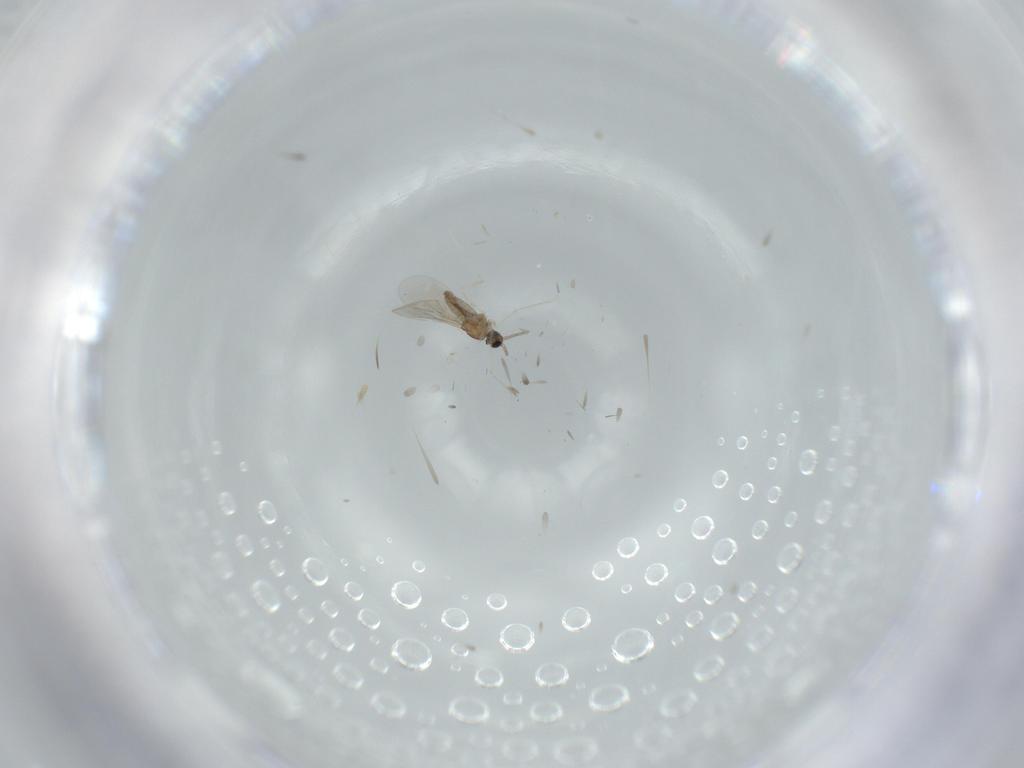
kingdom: Animalia
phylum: Arthropoda
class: Insecta
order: Diptera
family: Cecidomyiidae
